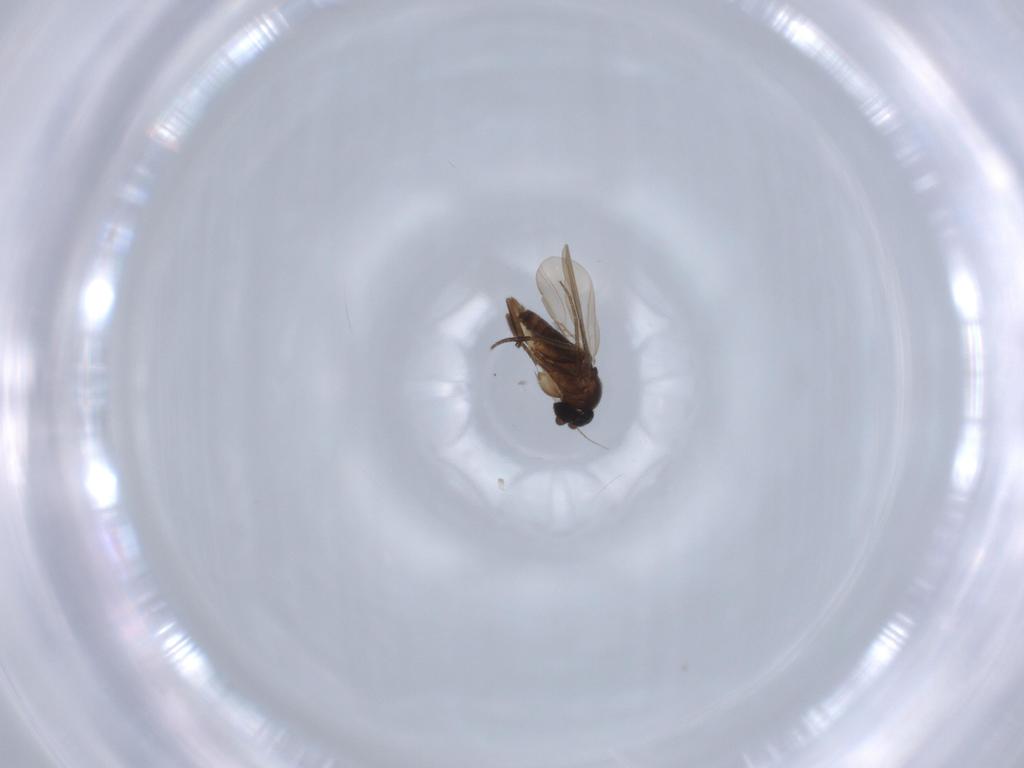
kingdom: Animalia
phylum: Arthropoda
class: Insecta
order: Diptera
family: Phoridae
